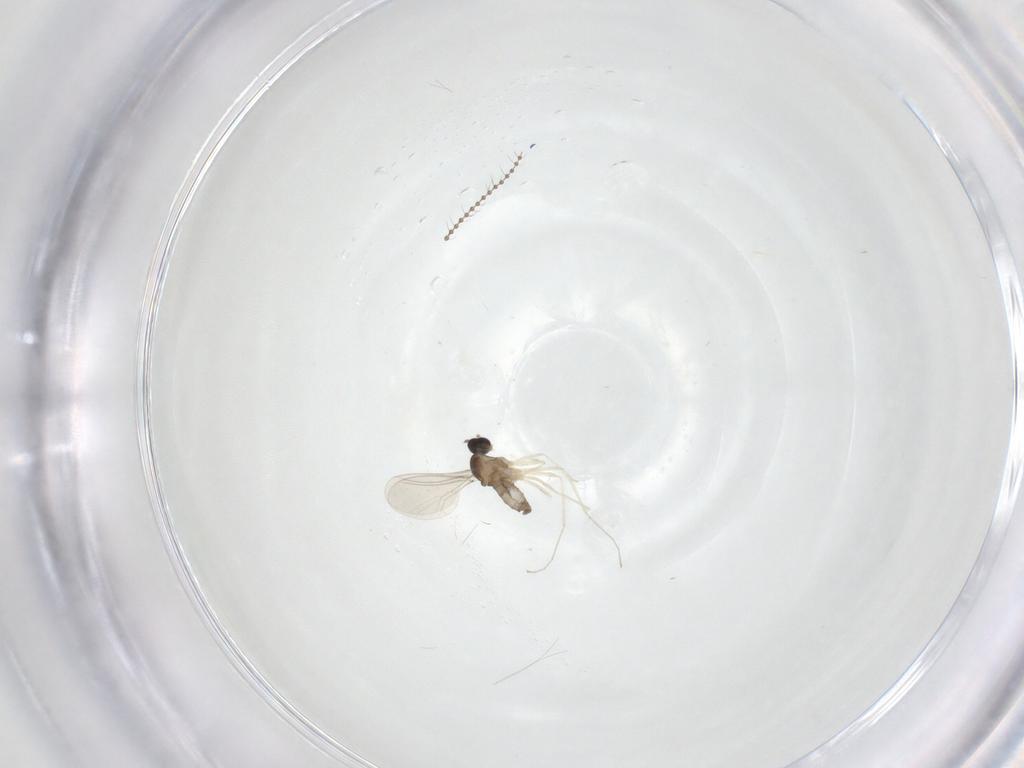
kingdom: Animalia
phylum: Arthropoda
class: Insecta
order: Diptera
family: Cecidomyiidae
